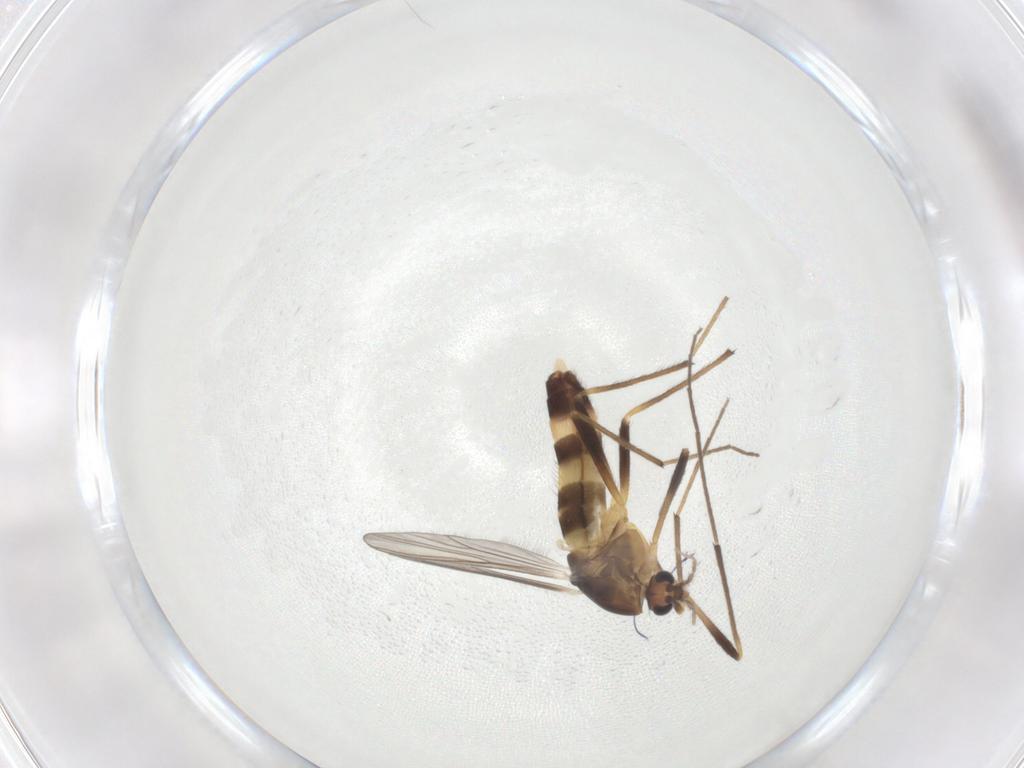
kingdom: Animalia
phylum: Arthropoda
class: Insecta
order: Diptera
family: Chironomidae
